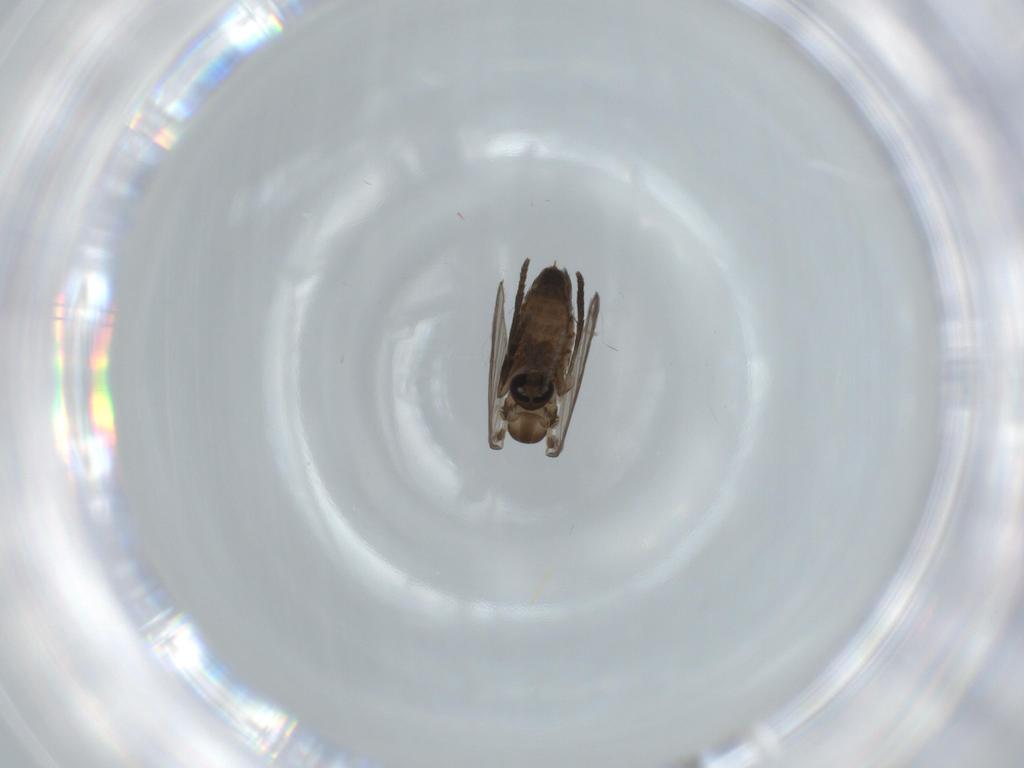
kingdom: Animalia
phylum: Arthropoda
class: Insecta
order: Diptera
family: Psychodidae
